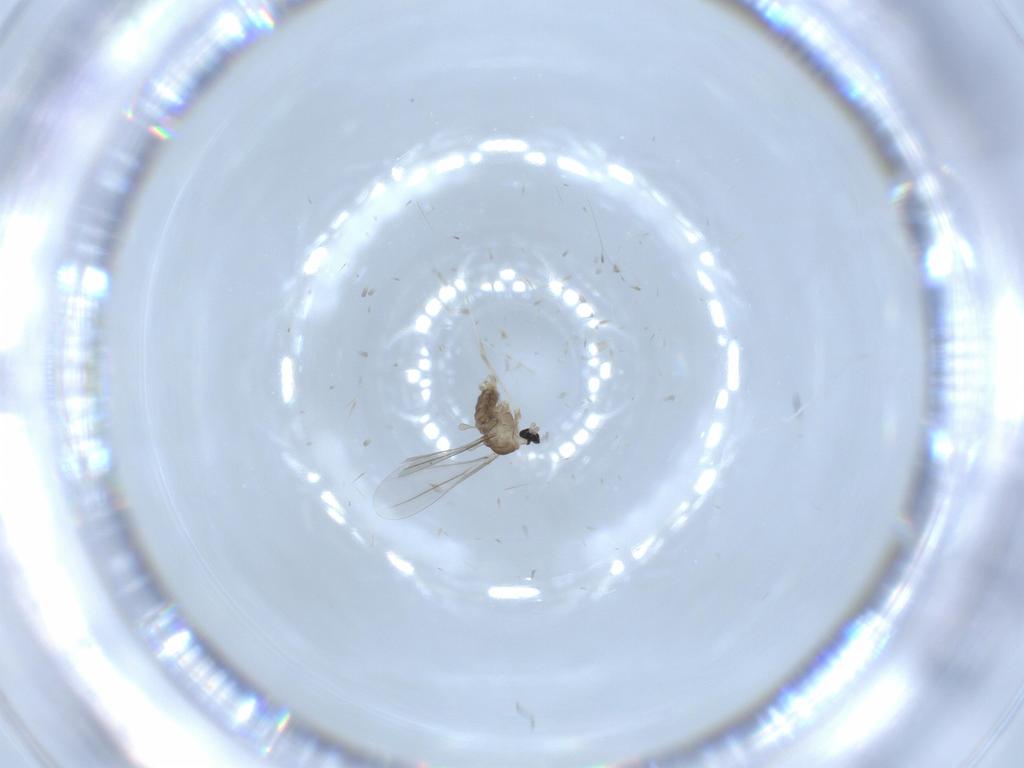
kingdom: Animalia
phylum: Arthropoda
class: Insecta
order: Diptera
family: Cecidomyiidae
